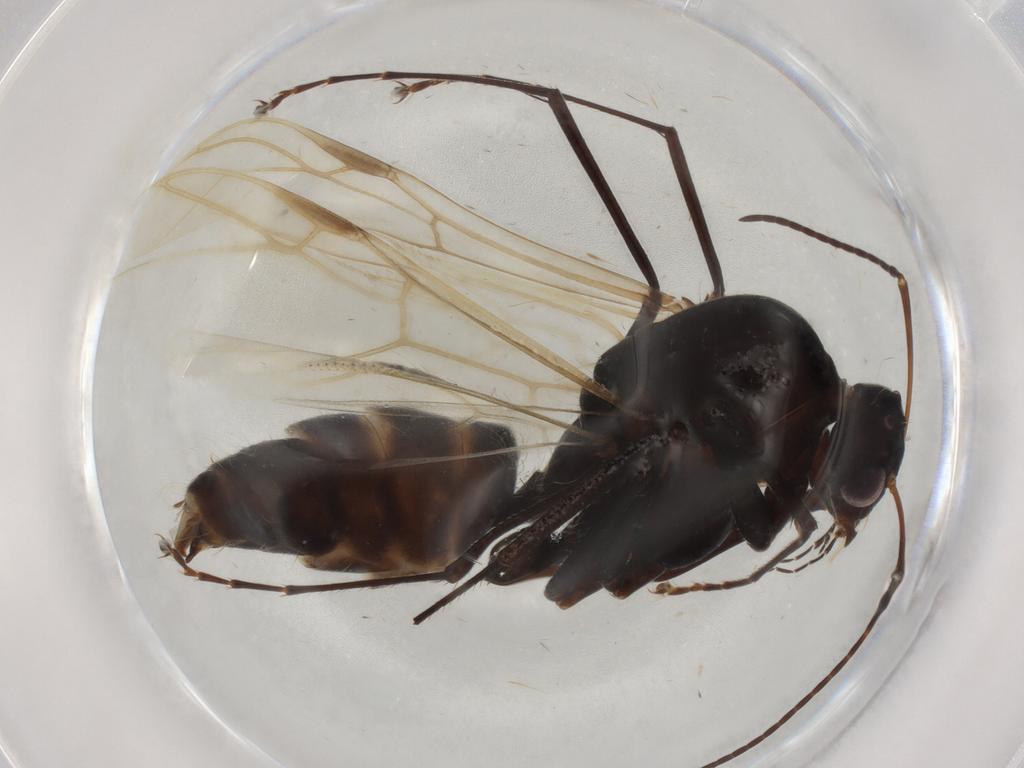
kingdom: Animalia
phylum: Arthropoda
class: Insecta
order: Hymenoptera
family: Formicidae
